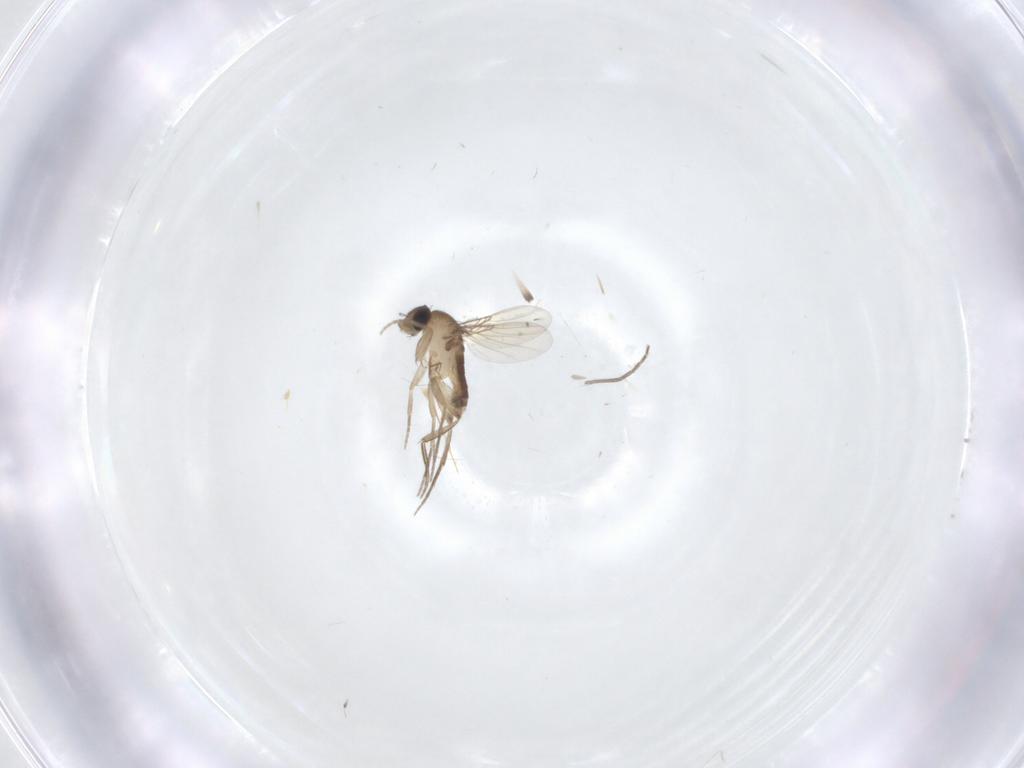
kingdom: Animalia
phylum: Arthropoda
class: Insecta
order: Diptera
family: Phoridae
